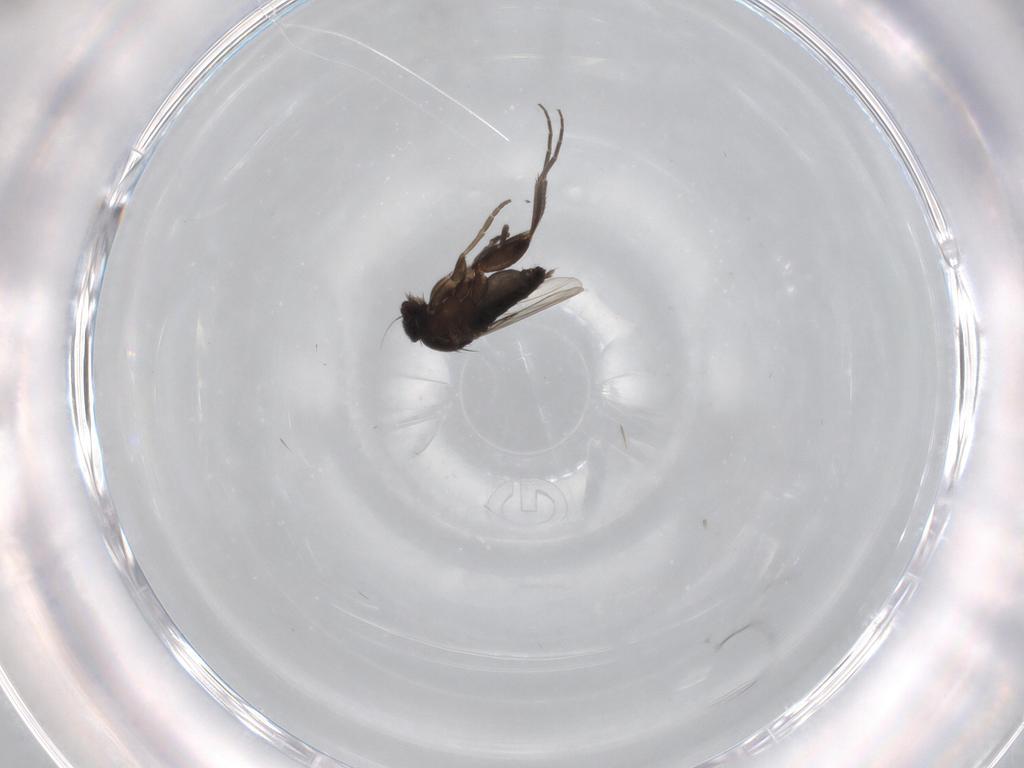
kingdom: Animalia
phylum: Arthropoda
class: Insecta
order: Diptera
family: Phoridae
